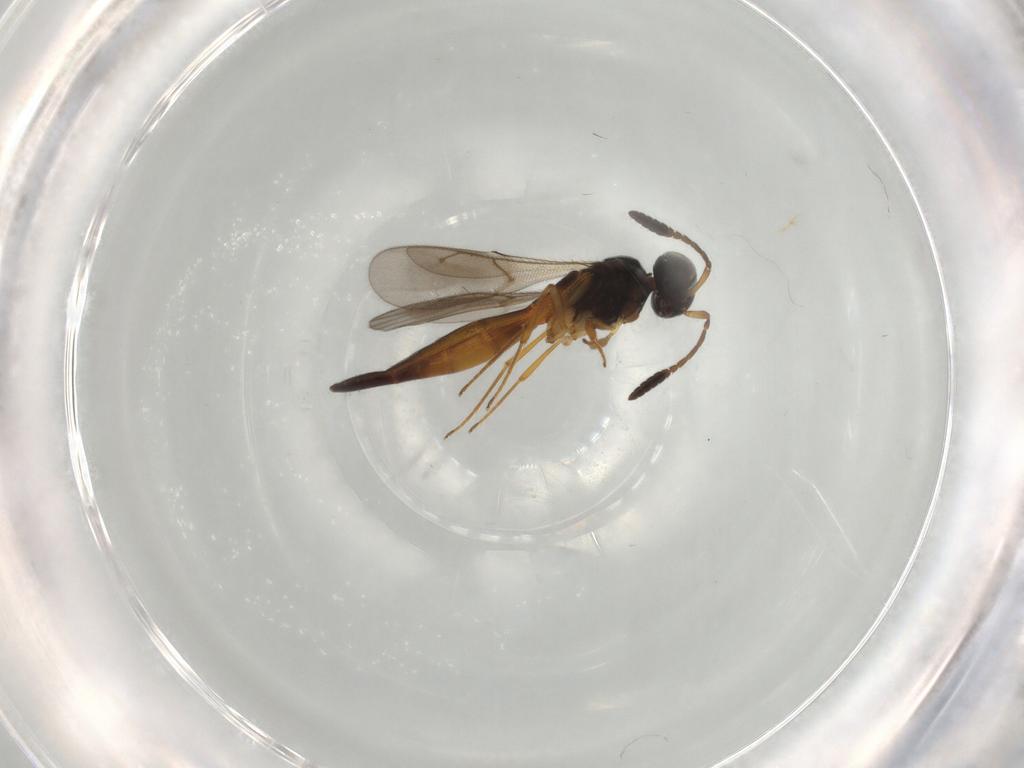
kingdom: Animalia
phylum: Arthropoda
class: Insecta
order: Hymenoptera
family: Scelionidae
